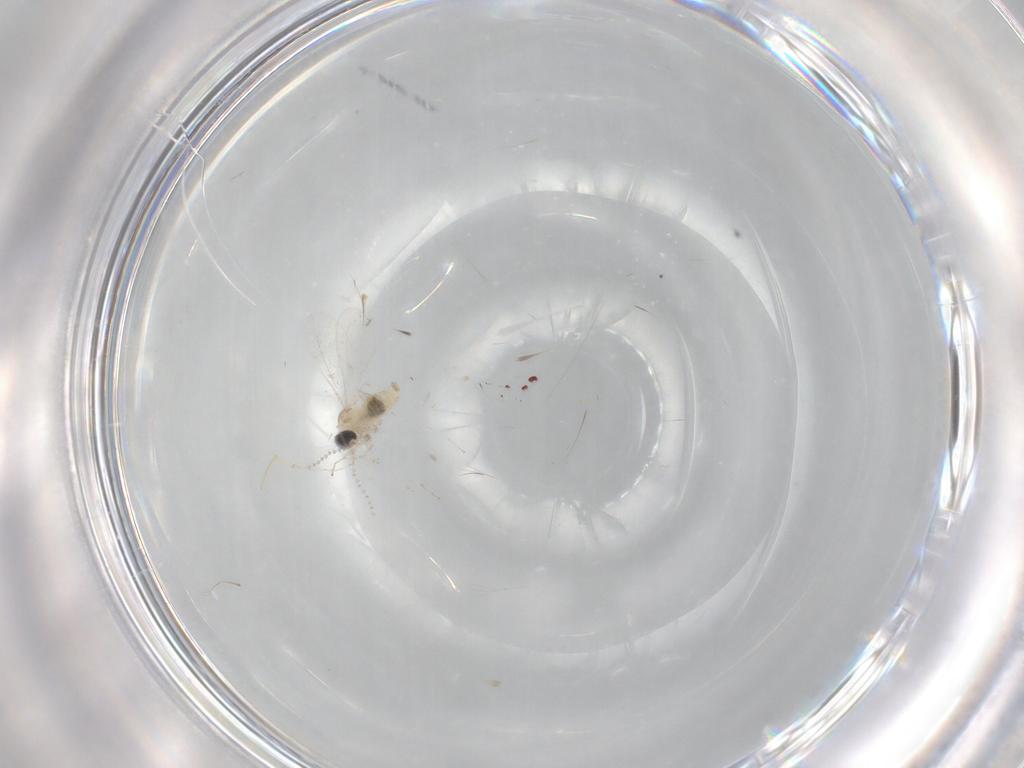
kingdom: Animalia
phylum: Arthropoda
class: Insecta
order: Diptera
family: Cecidomyiidae
